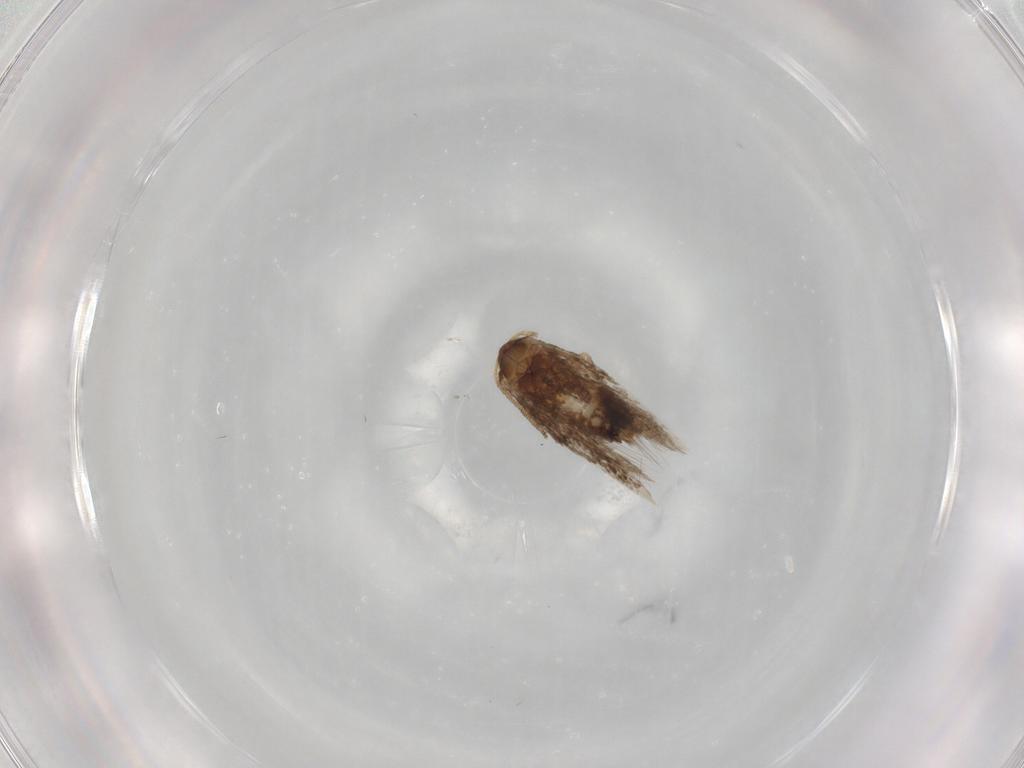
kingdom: Animalia
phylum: Arthropoda
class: Insecta
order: Lepidoptera
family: Nepticulidae
